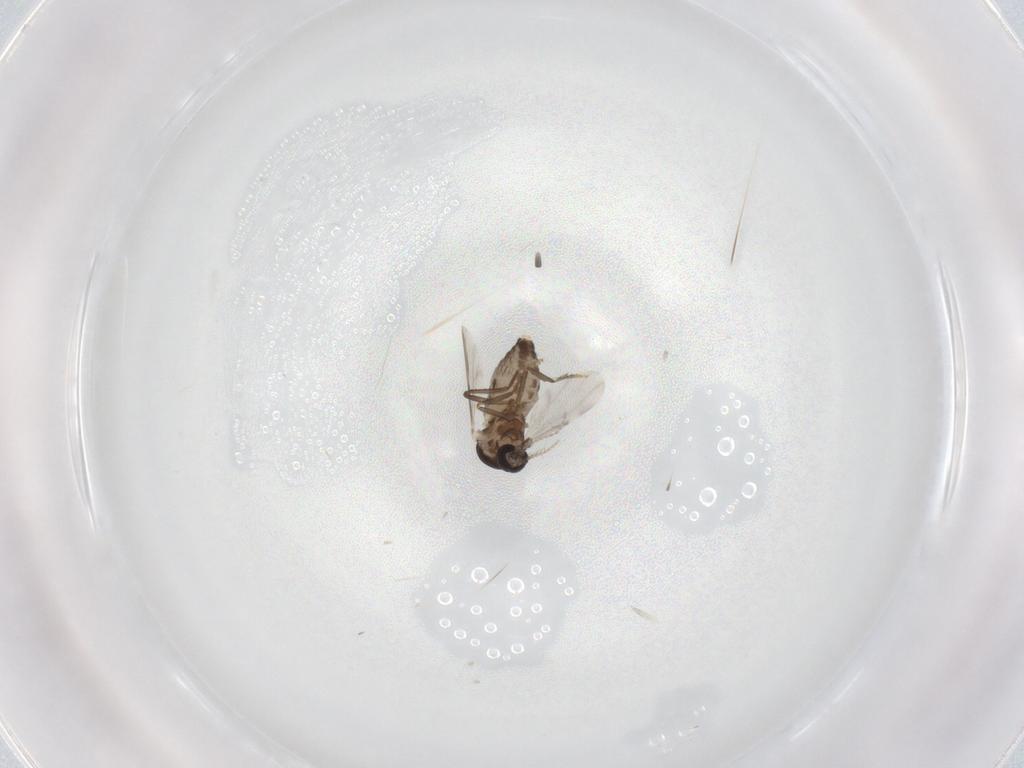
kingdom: Animalia
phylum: Arthropoda
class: Insecta
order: Diptera
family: Ceratopogonidae
